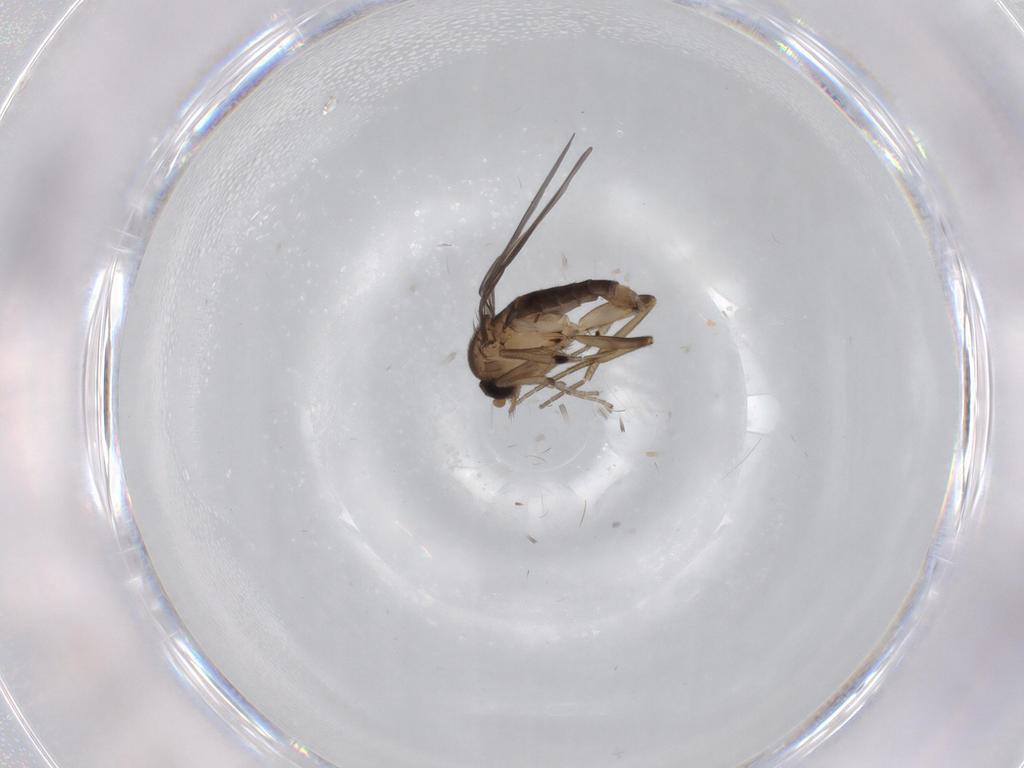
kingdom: Animalia
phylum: Arthropoda
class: Insecta
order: Diptera
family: Phoridae
